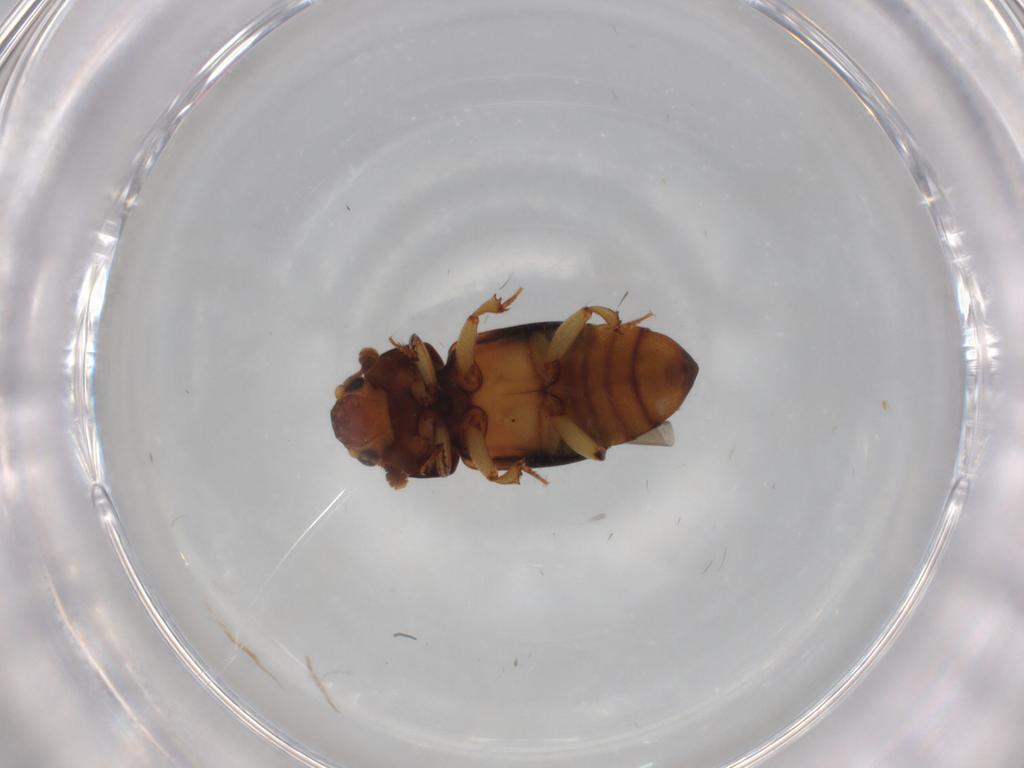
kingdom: Animalia
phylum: Arthropoda
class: Insecta
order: Coleoptera
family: Nitidulidae
